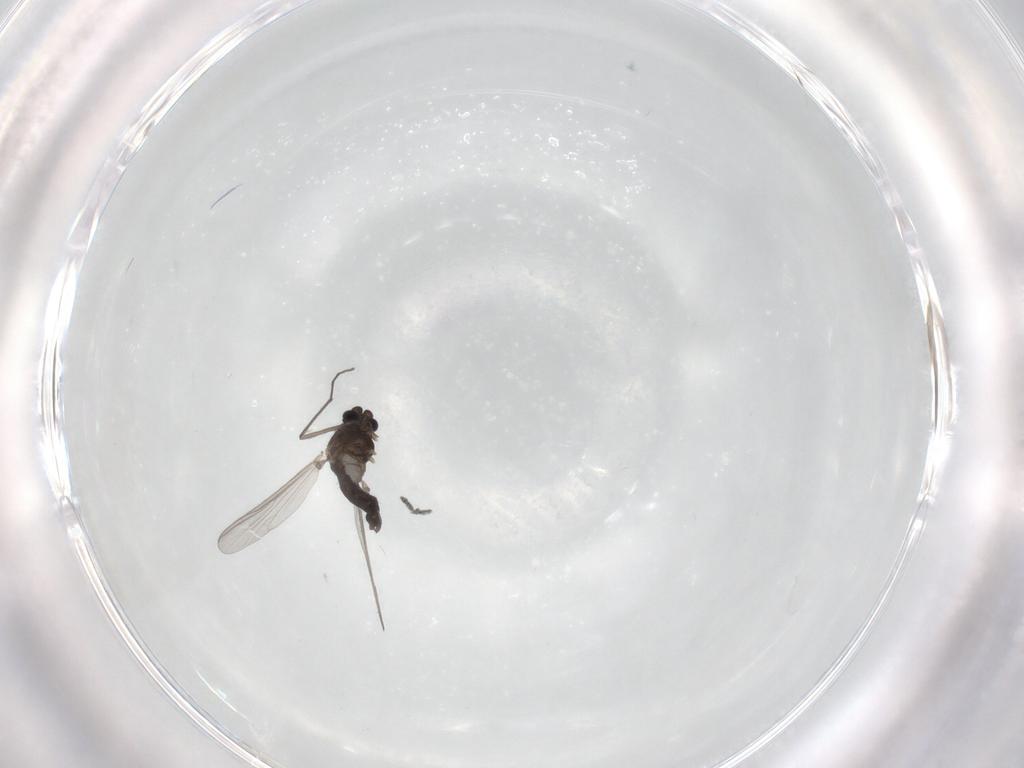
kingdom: Animalia
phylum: Arthropoda
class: Insecta
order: Diptera
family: Chironomidae
